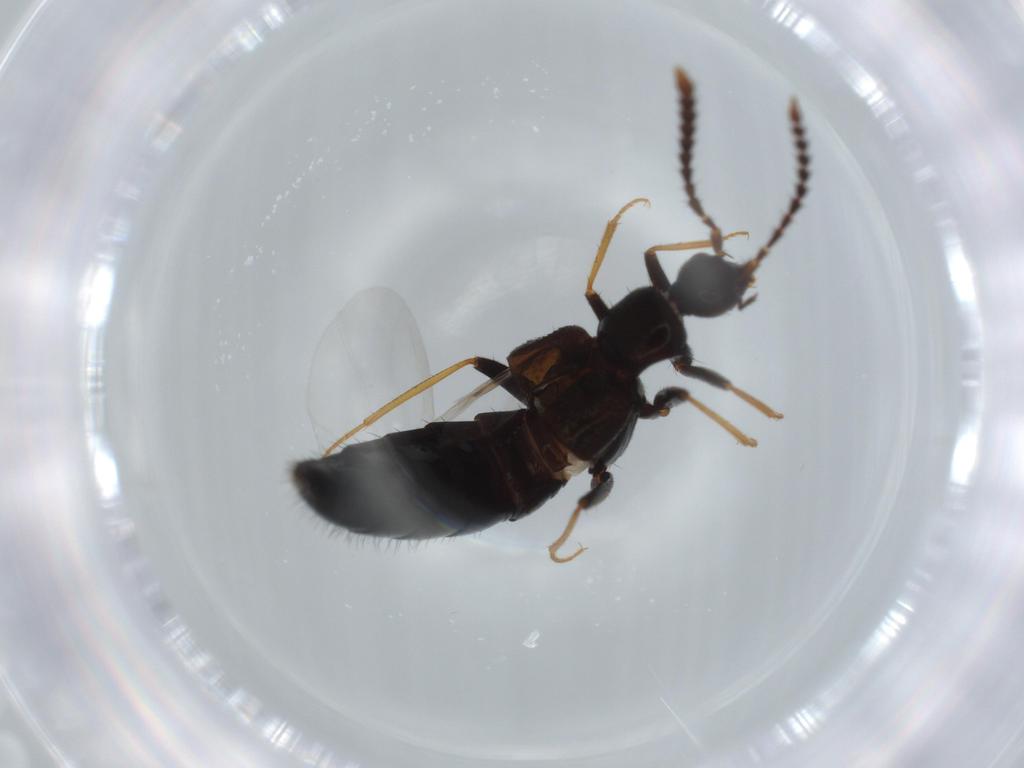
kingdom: Animalia
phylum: Arthropoda
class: Insecta
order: Coleoptera
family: Staphylinidae
